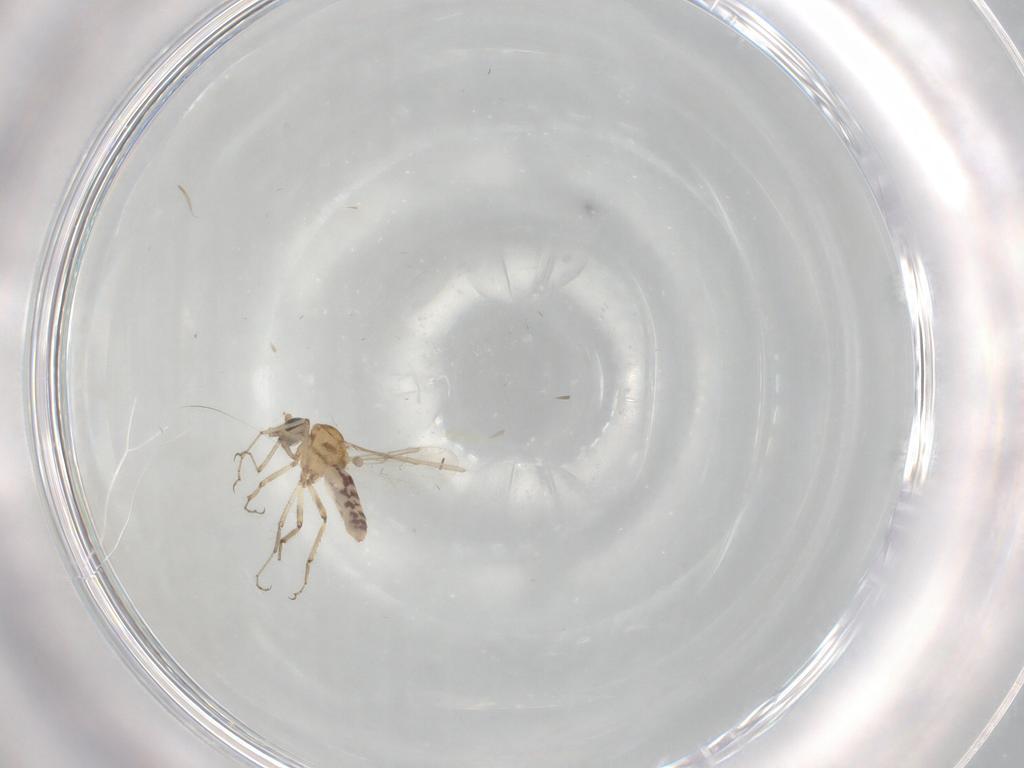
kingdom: Animalia
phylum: Arthropoda
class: Insecta
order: Diptera
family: Ceratopogonidae
